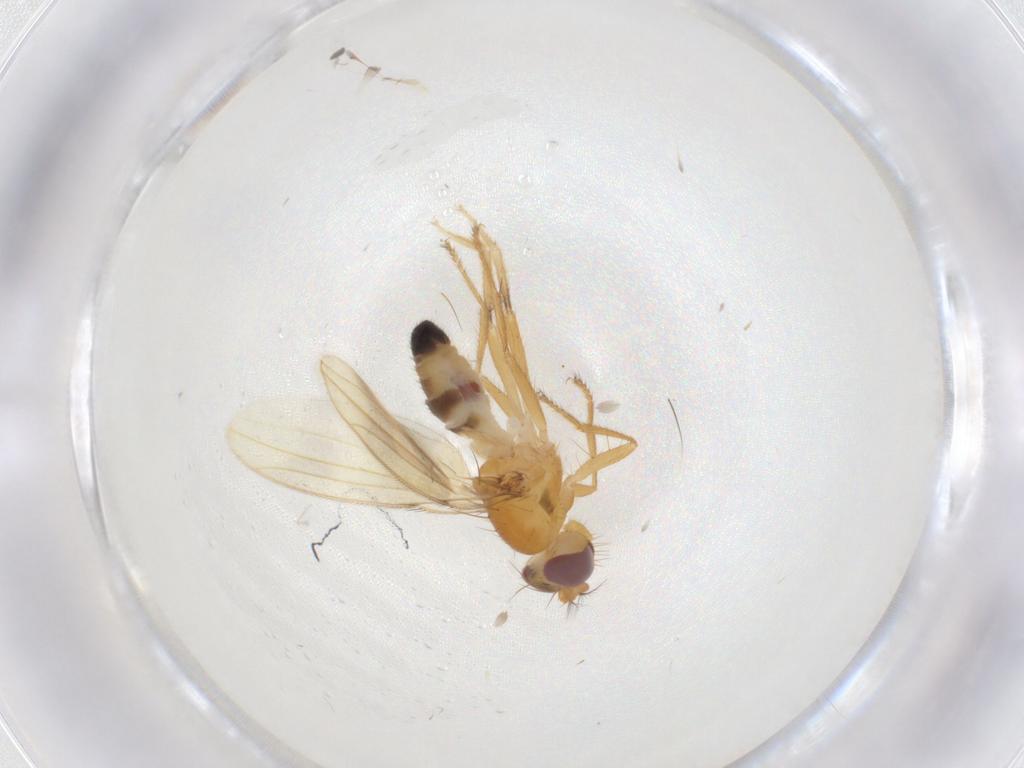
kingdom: Animalia
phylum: Arthropoda
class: Insecta
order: Diptera
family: Periscelididae
